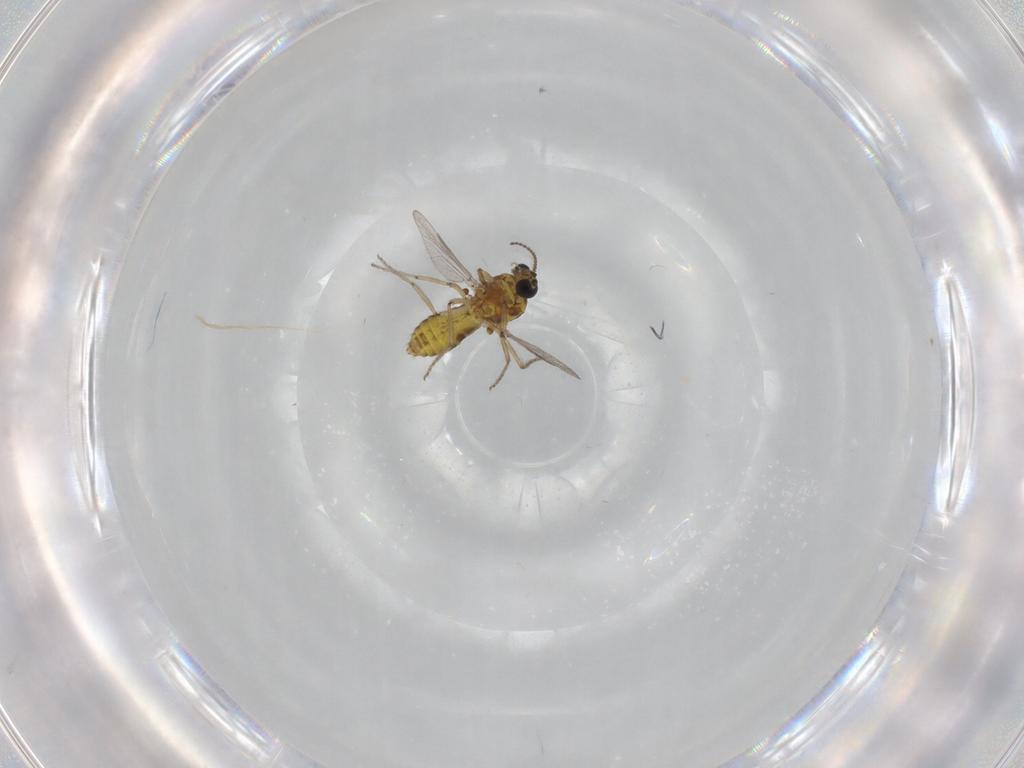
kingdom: Animalia
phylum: Arthropoda
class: Insecta
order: Diptera
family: Ceratopogonidae
